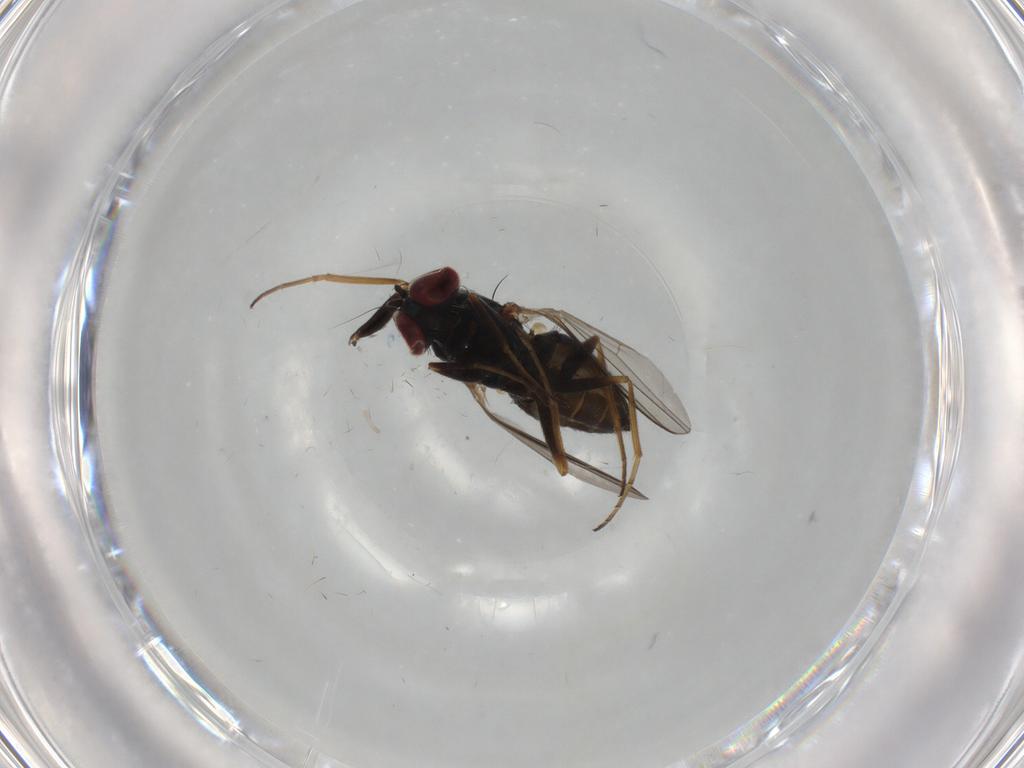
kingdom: Animalia
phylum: Arthropoda
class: Insecta
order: Diptera
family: Dolichopodidae
